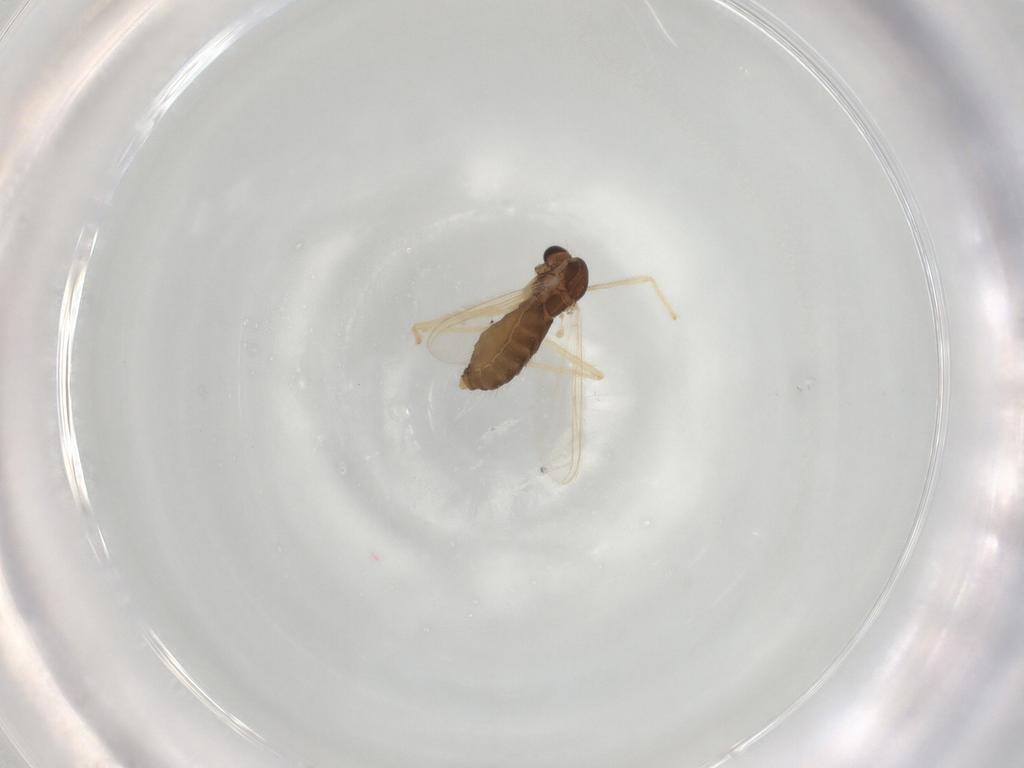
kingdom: Animalia
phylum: Arthropoda
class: Insecta
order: Diptera
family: Chironomidae
